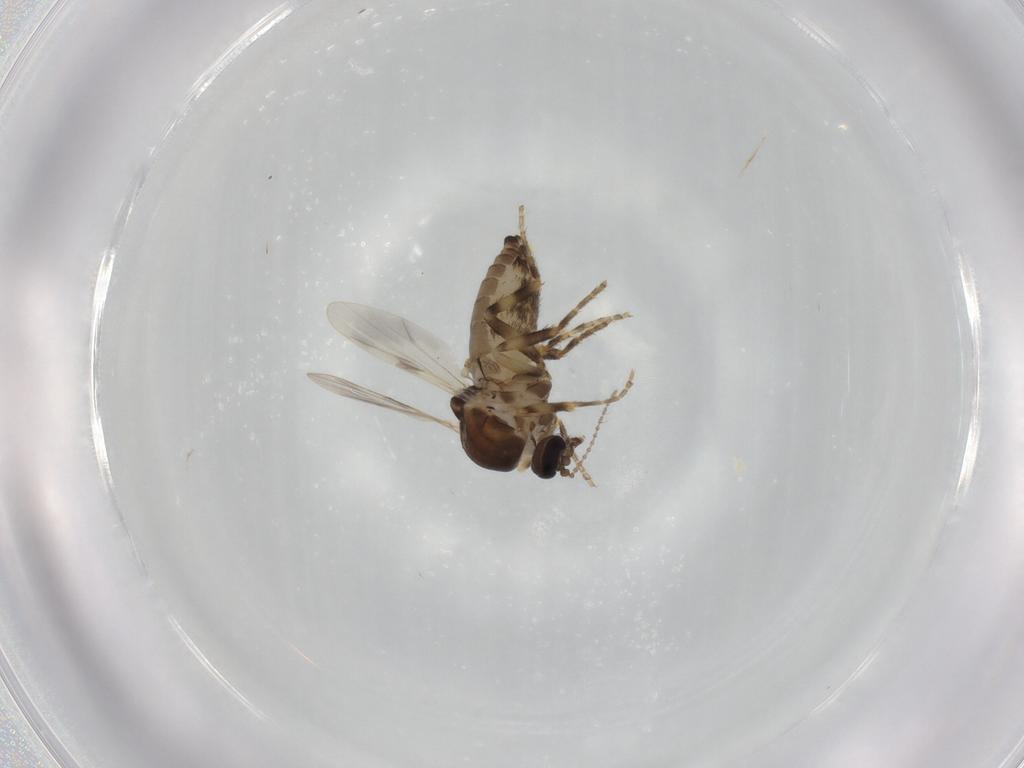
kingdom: Animalia
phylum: Arthropoda
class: Insecta
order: Diptera
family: Ceratopogonidae
